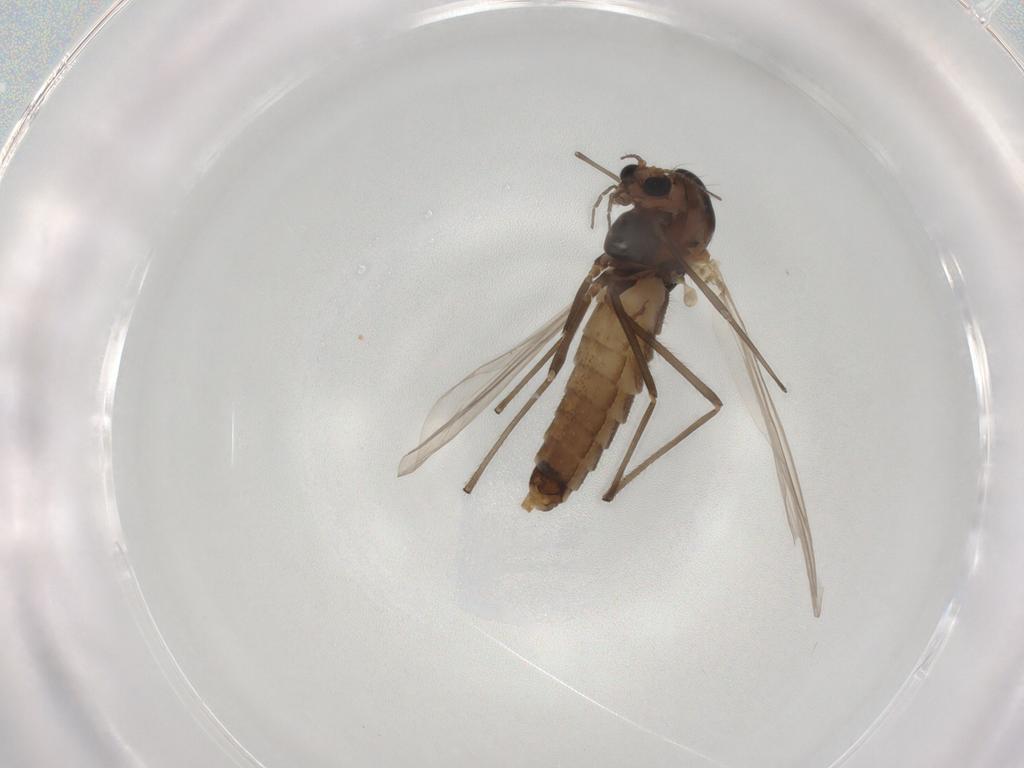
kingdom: Animalia
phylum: Arthropoda
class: Insecta
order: Diptera
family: Chironomidae
